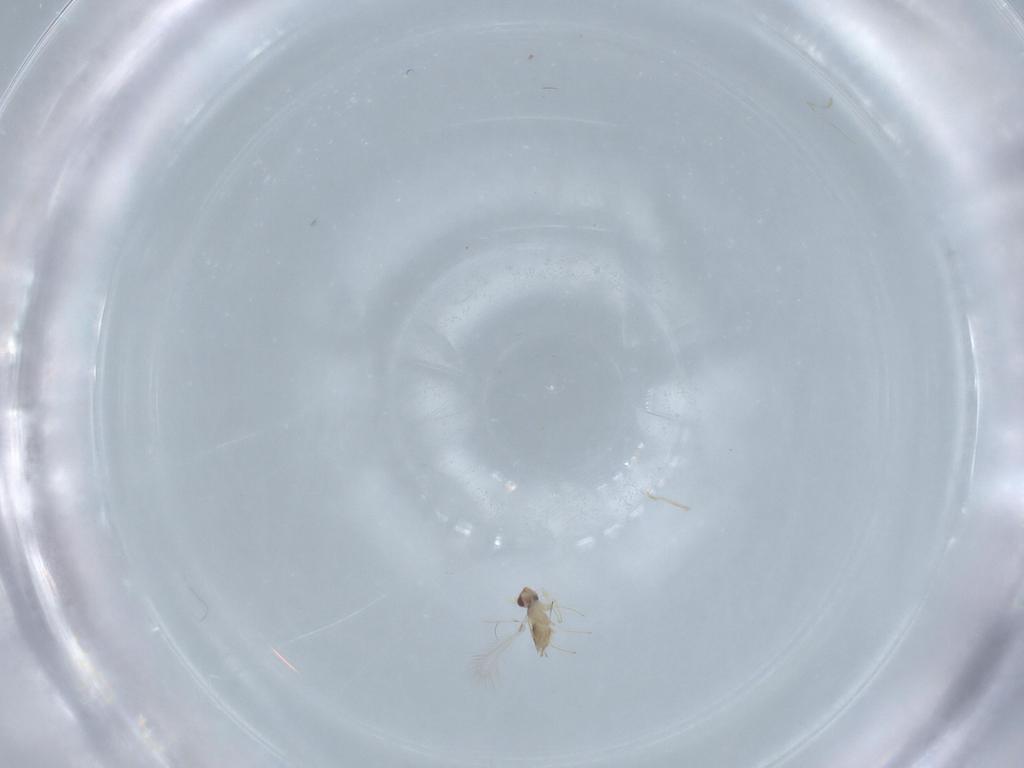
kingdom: Animalia
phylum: Arthropoda
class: Insecta
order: Hymenoptera
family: Mymaridae
